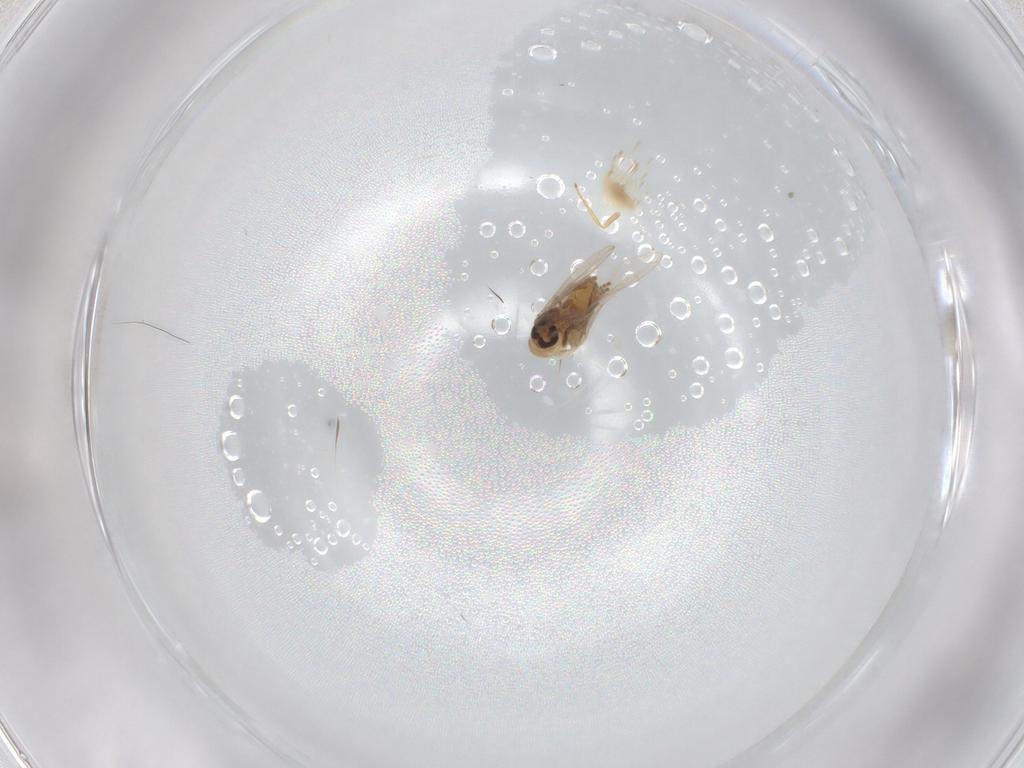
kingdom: Animalia
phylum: Arthropoda
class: Insecta
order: Diptera
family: Psychodidae
